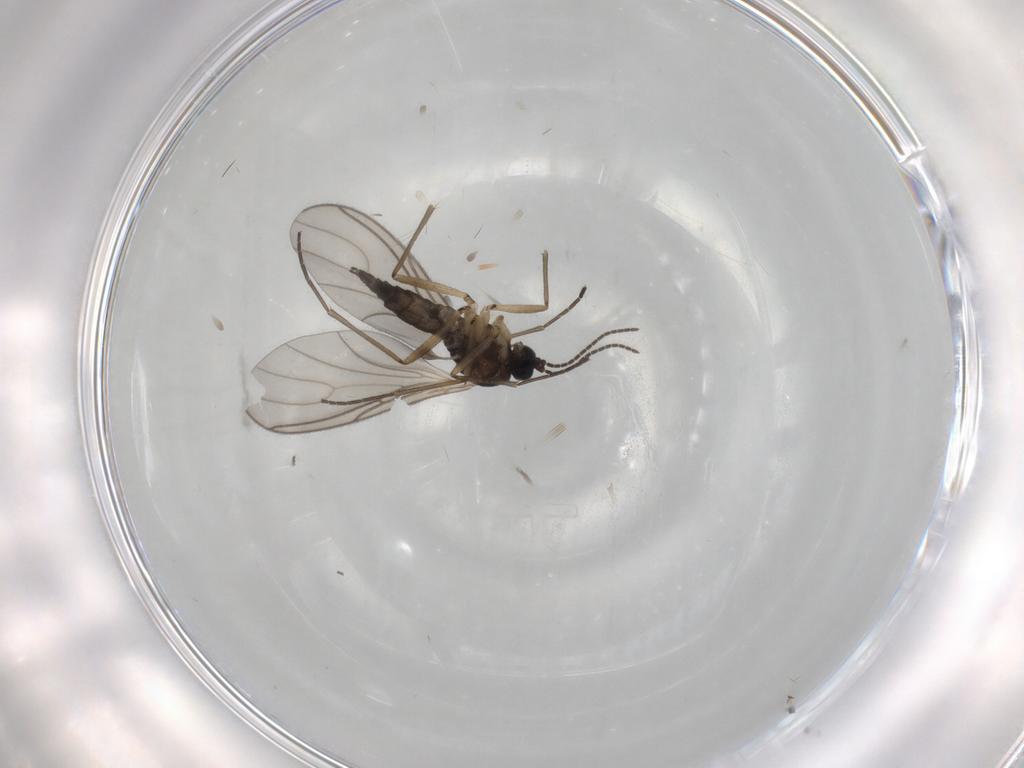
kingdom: Animalia
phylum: Arthropoda
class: Insecta
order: Diptera
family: Sciaridae
